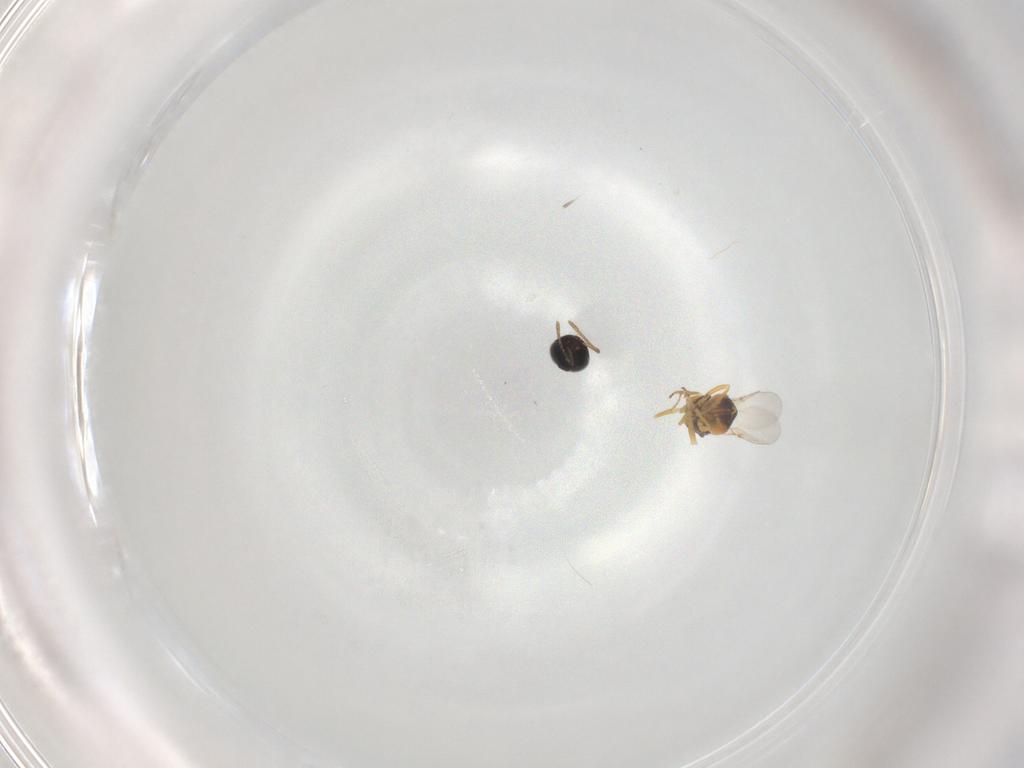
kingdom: Animalia
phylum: Arthropoda
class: Insecta
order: Hymenoptera
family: Encyrtidae
